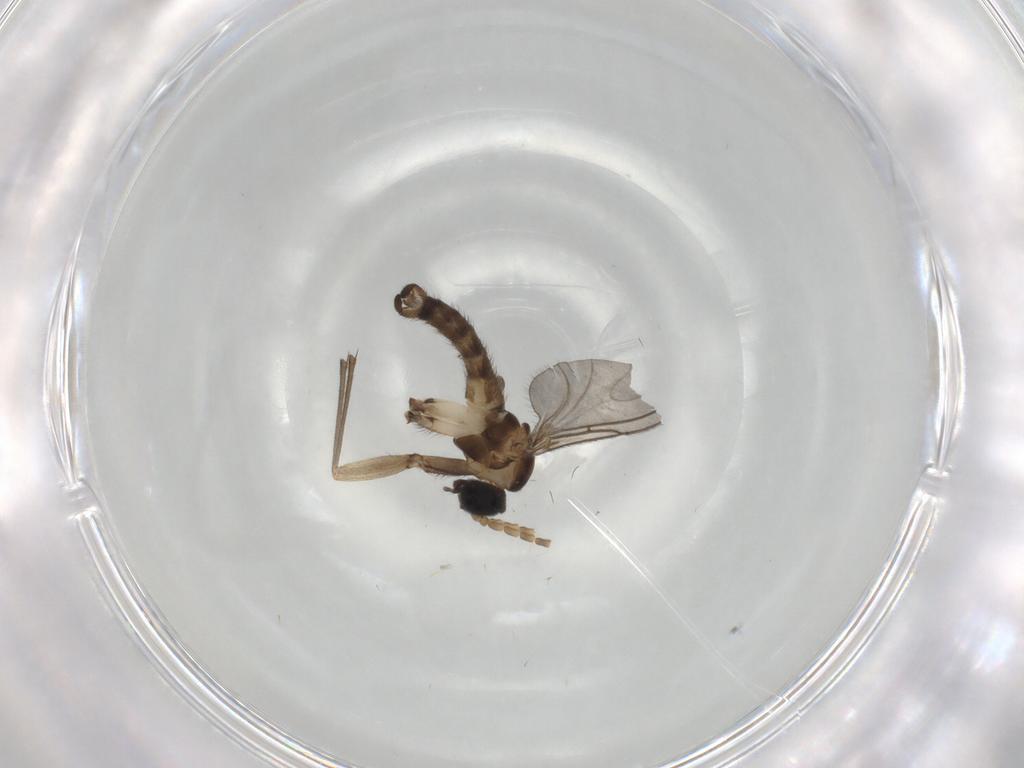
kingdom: Animalia
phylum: Arthropoda
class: Insecta
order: Diptera
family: Sciaridae
